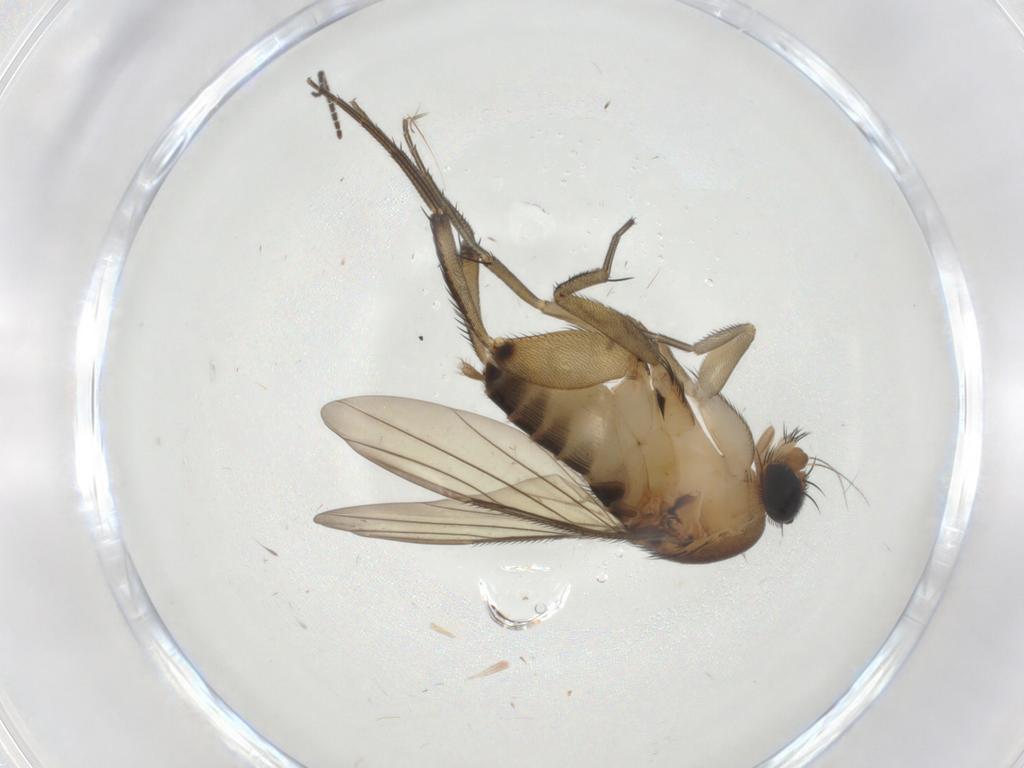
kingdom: Animalia
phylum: Arthropoda
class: Insecta
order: Diptera
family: Phoridae
